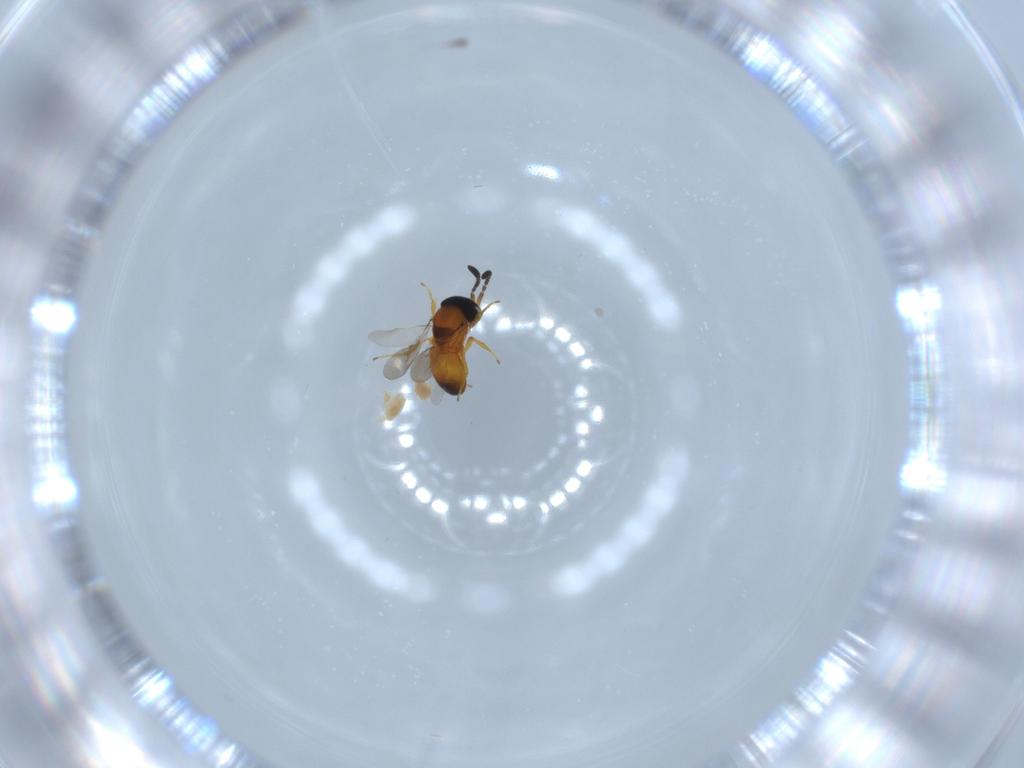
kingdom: Animalia
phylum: Arthropoda
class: Insecta
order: Hymenoptera
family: Scelionidae
